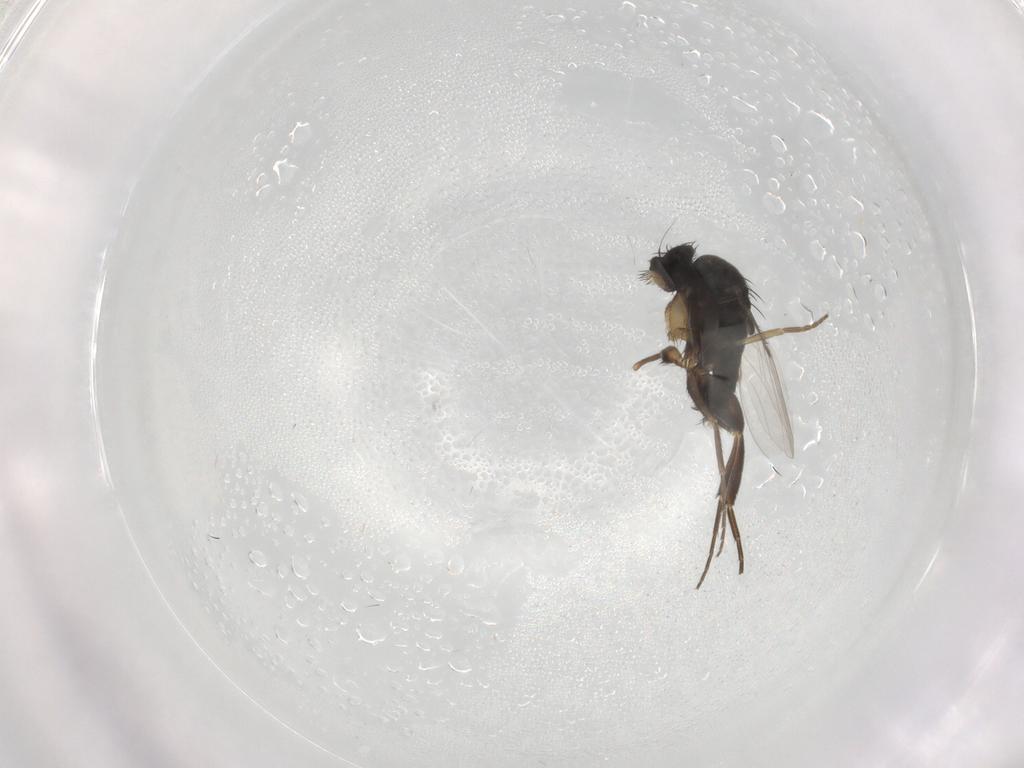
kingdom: Animalia
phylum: Arthropoda
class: Insecta
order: Diptera
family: Phoridae
